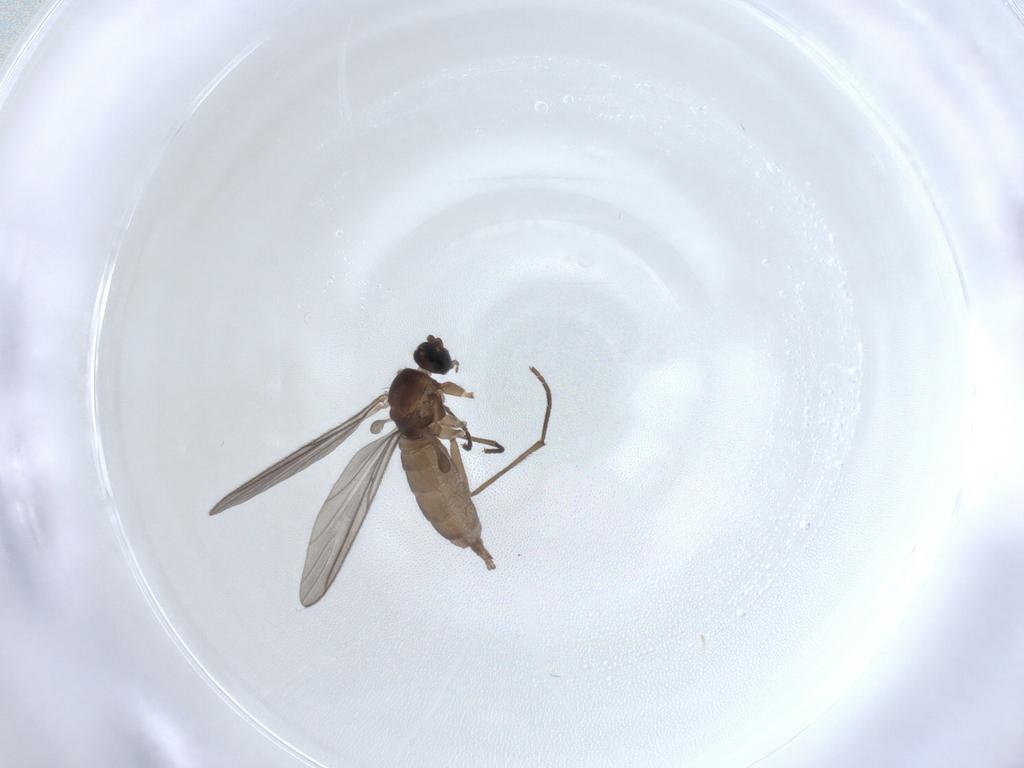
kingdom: Animalia
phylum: Arthropoda
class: Insecta
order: Diptera
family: Sciaridae
